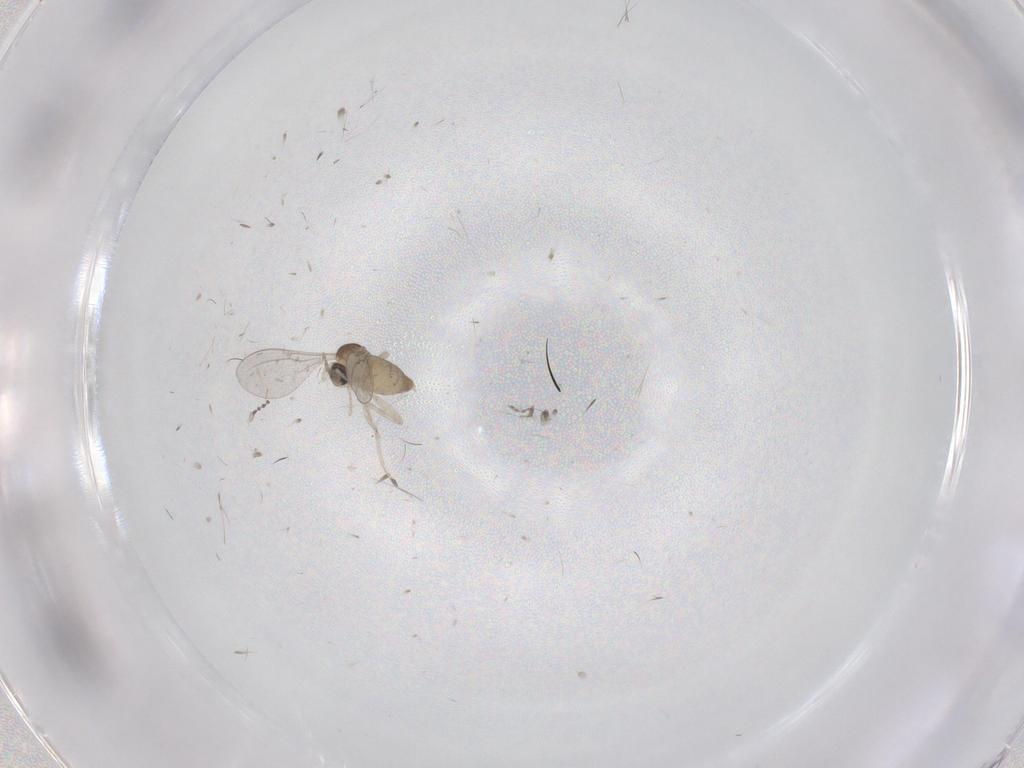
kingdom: Animalia
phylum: Arthropoda
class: Insecta
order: Diptera
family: Cecidomyiidae
